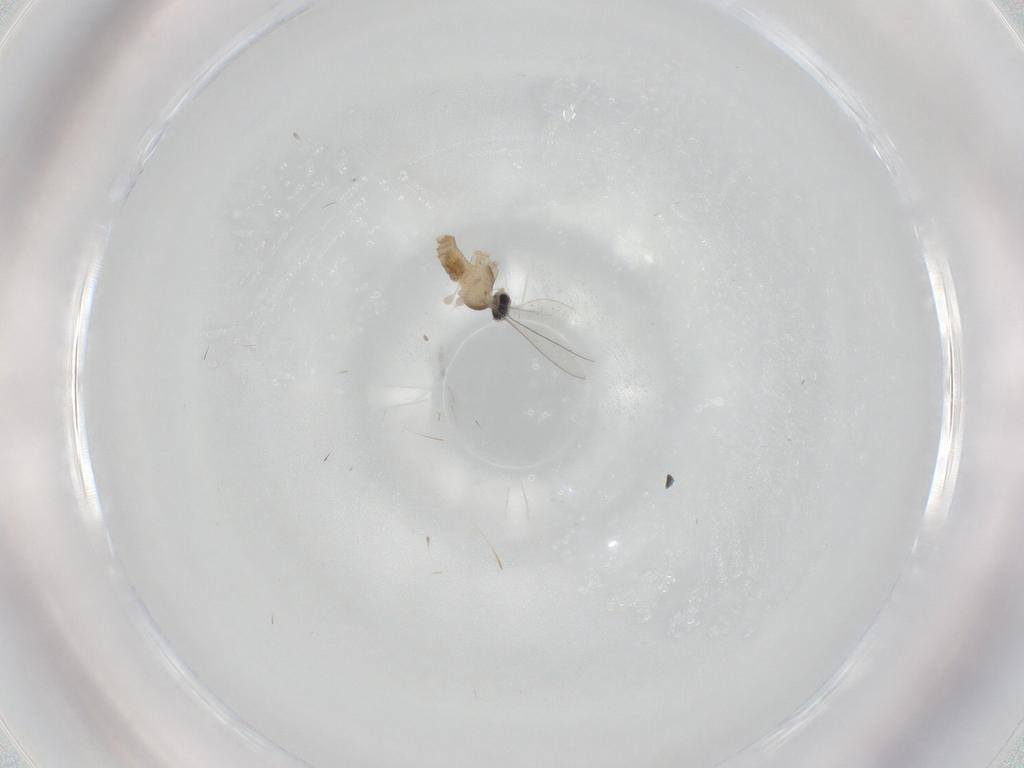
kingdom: Animalia
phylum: Arthropoda
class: Insecta
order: Diptera
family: Cecidomyiidae
